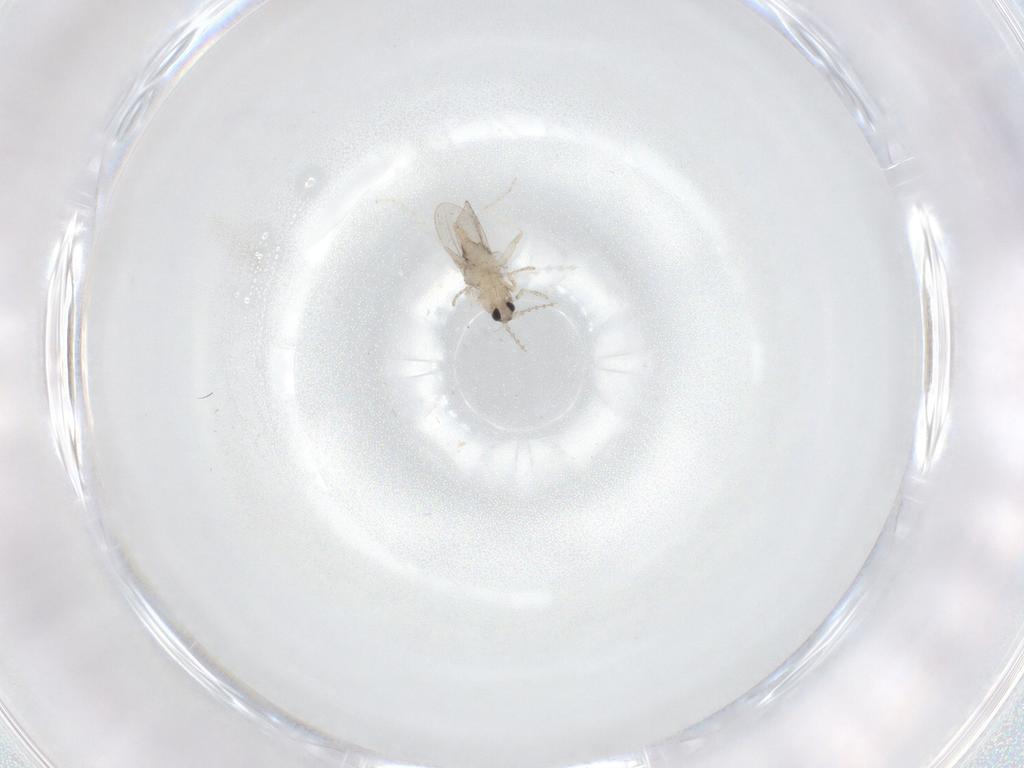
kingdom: Animalia
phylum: Arthropoda
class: Insecta
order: Diptera
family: Cecidomyiidae
